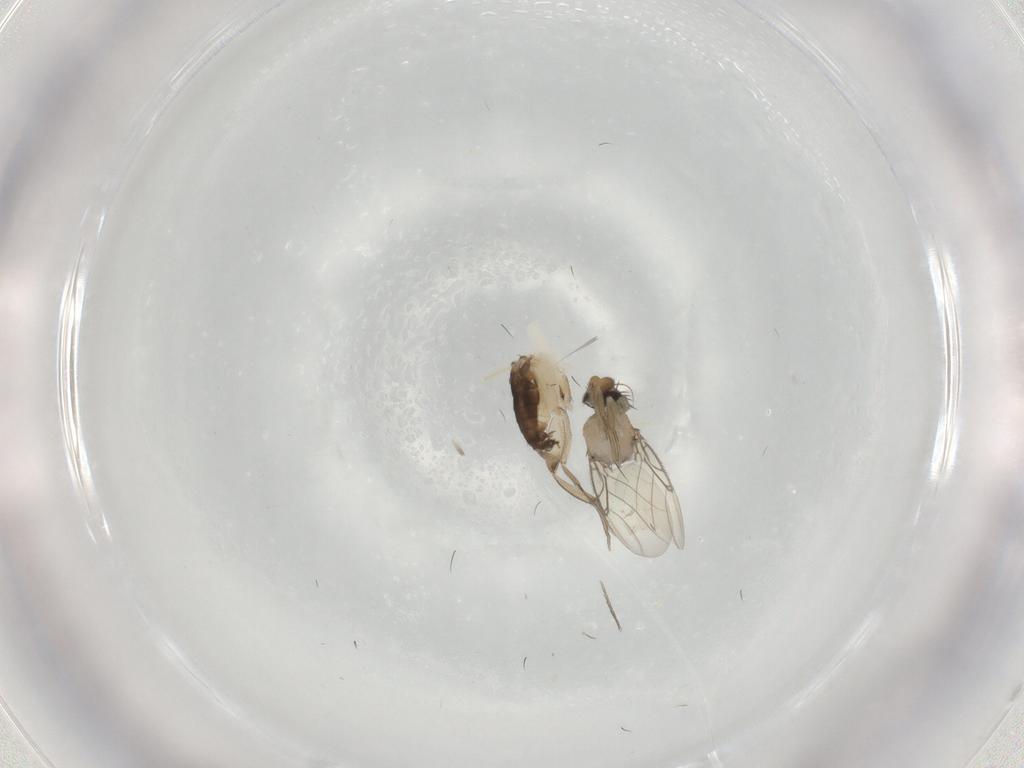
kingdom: Animalia
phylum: Arthropoda
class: Insecta
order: Diptera
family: Phoridae
